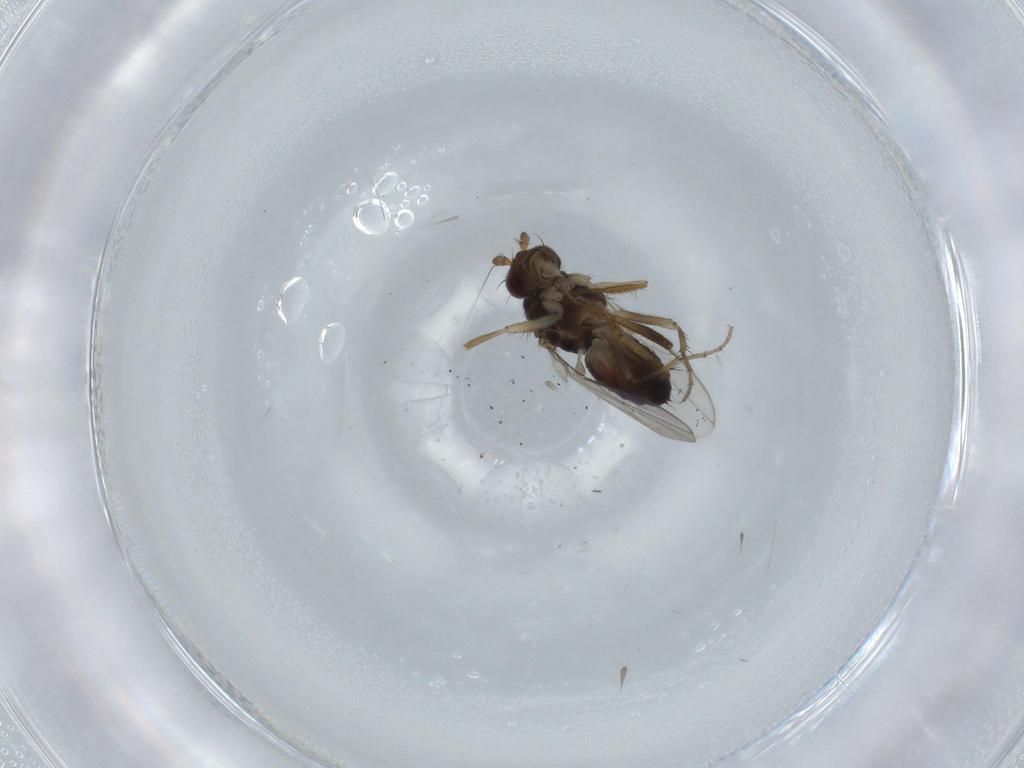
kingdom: Animalia
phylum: Arthropoda
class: Insecta
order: Diptera
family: Sphaeroceridae
